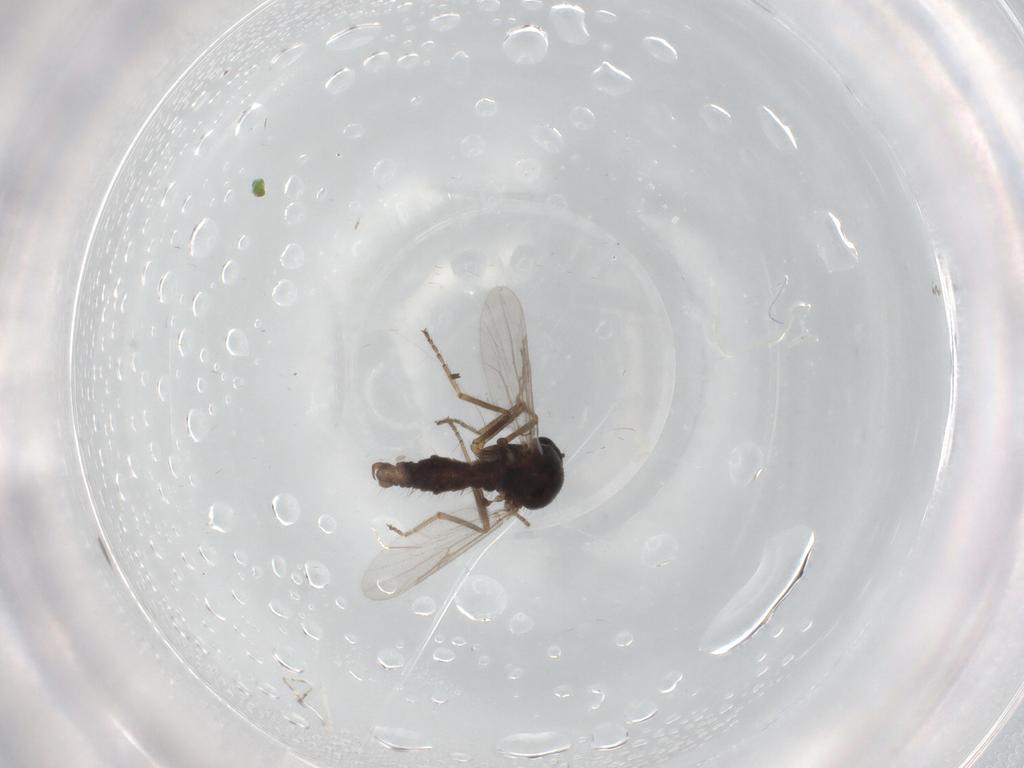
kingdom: Animalia
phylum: Arthropoda
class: Insecta
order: Diptera
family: Ceratopogonidae
